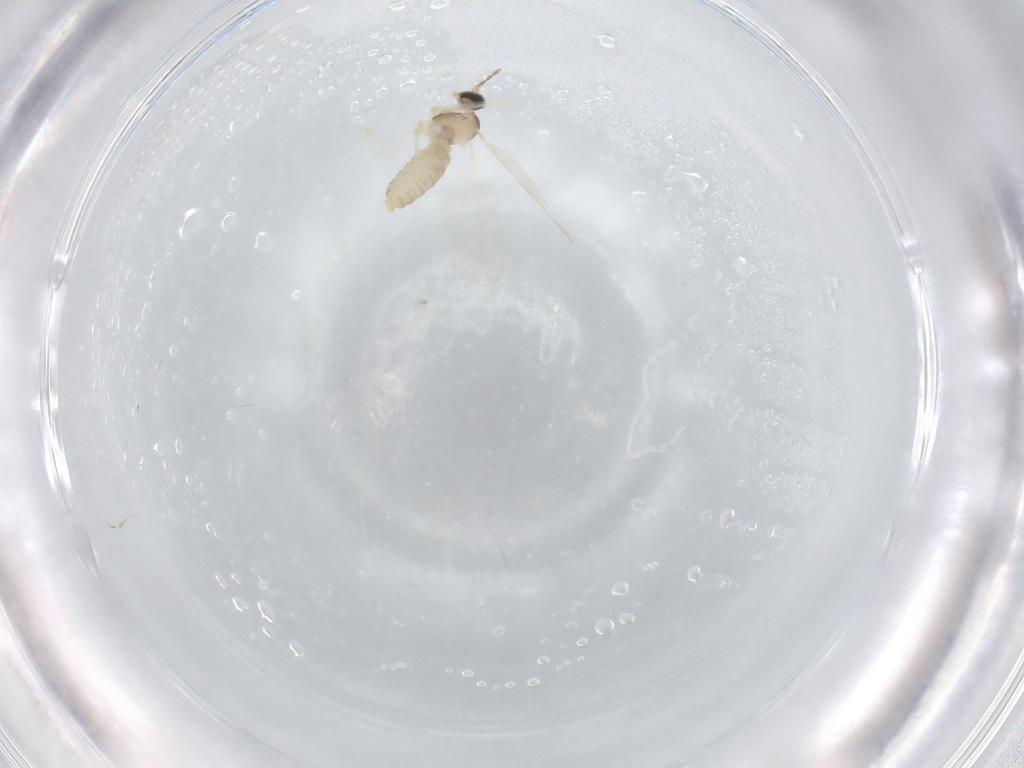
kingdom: Animalia
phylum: Arthropoda
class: Insecta
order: Diptera
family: Cecidomyiidae
